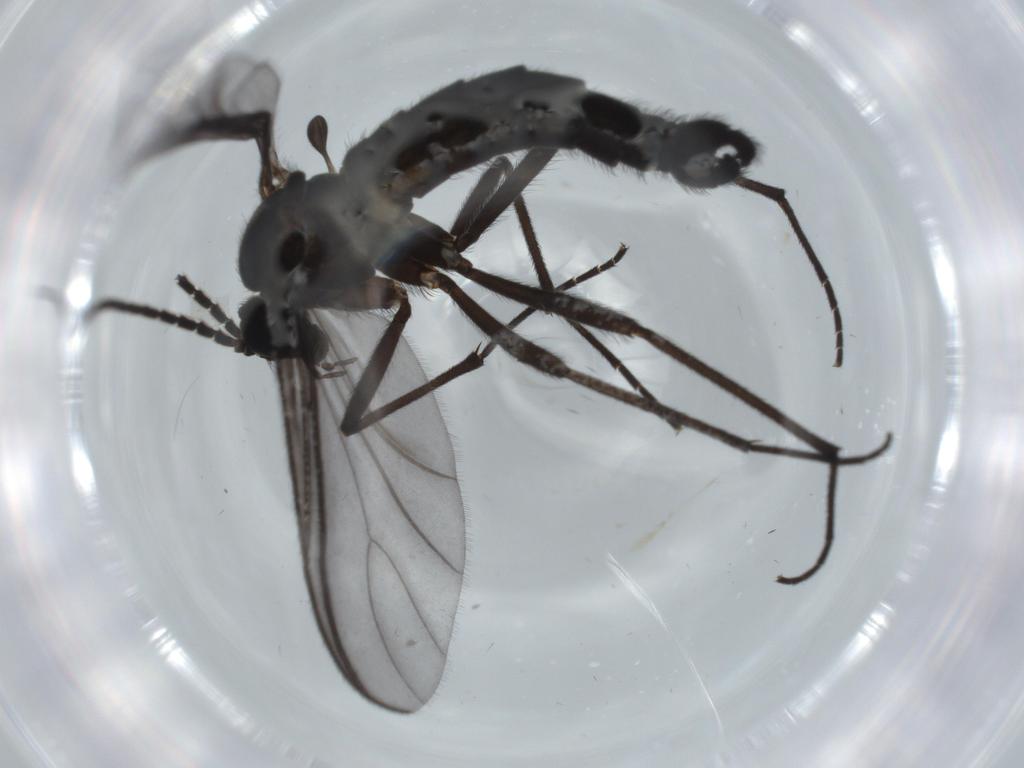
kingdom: Animalia
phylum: Arthropoda
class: Insecta
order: Diptera
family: Sciaridae
